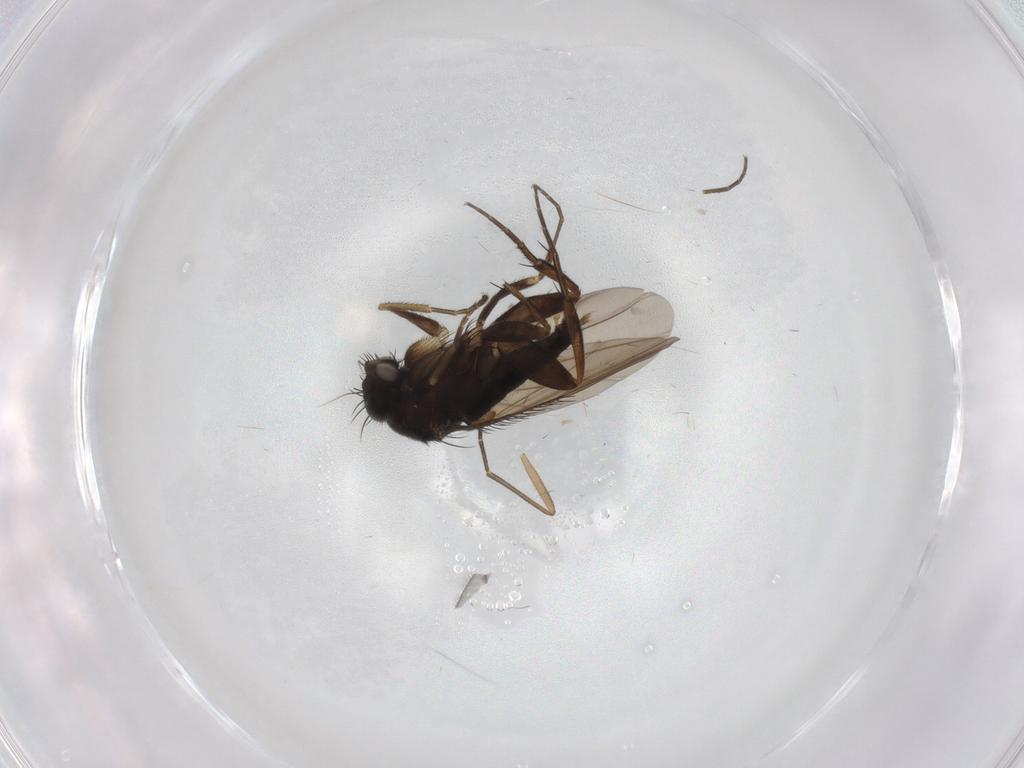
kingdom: Animalia
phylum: Arthropoda
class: Insecta
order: Diptera
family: Phoridae
